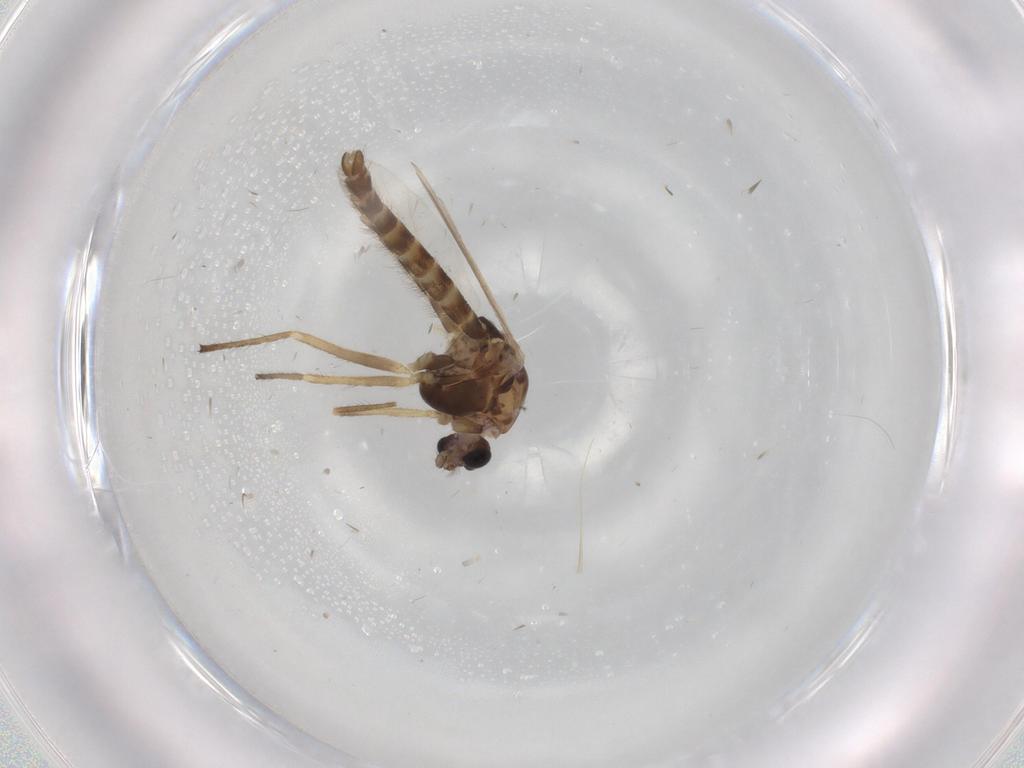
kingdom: Animalia
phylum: Arthropoda
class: Insecta
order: Diptera
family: Chironomidae
